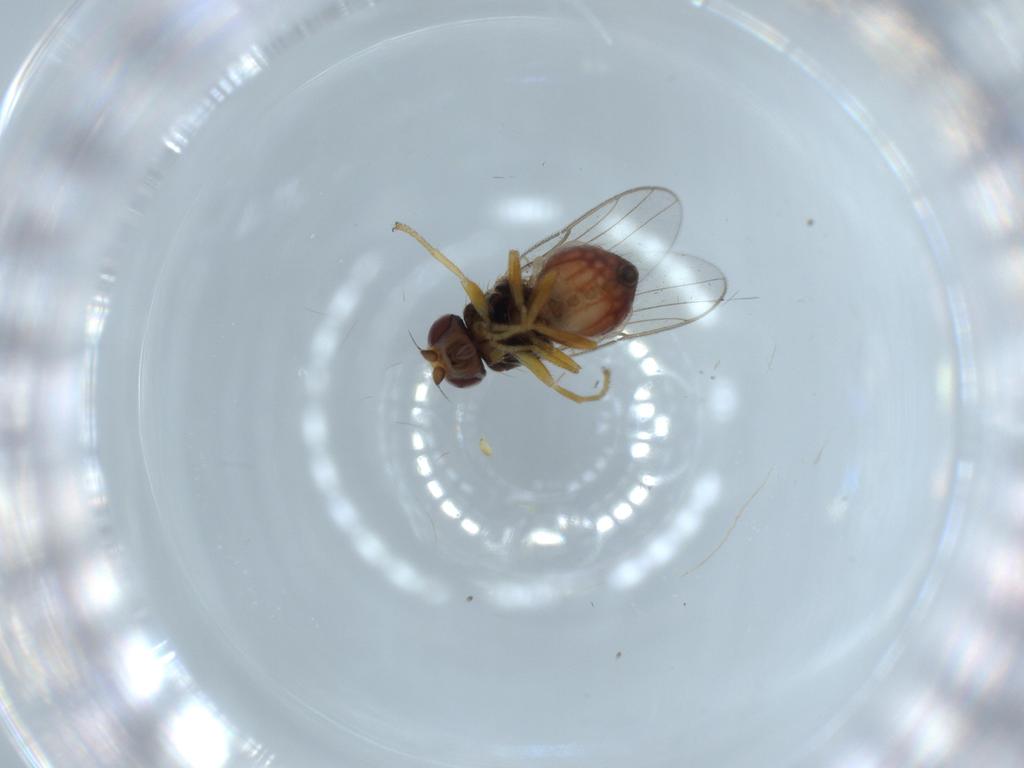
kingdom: Animalia
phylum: Arthropoda
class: Insecta
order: Diptera
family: Chloropidae
